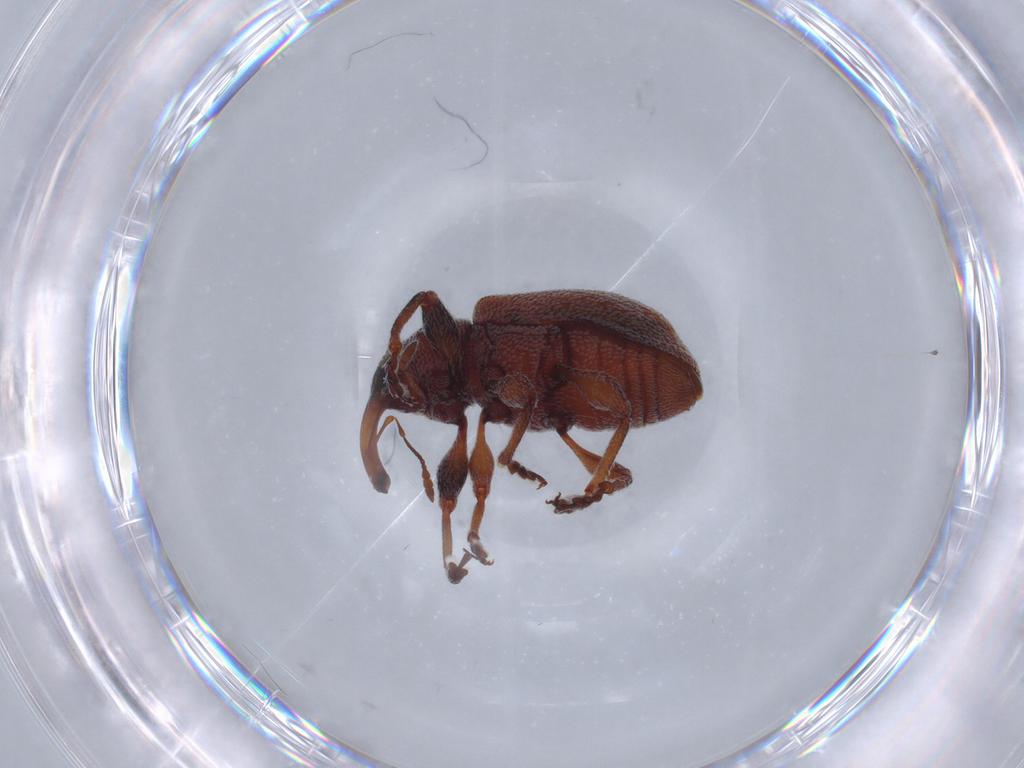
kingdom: Animalia
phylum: Arthropoda
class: Insecta
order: Coleoptera
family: Curculionidae
